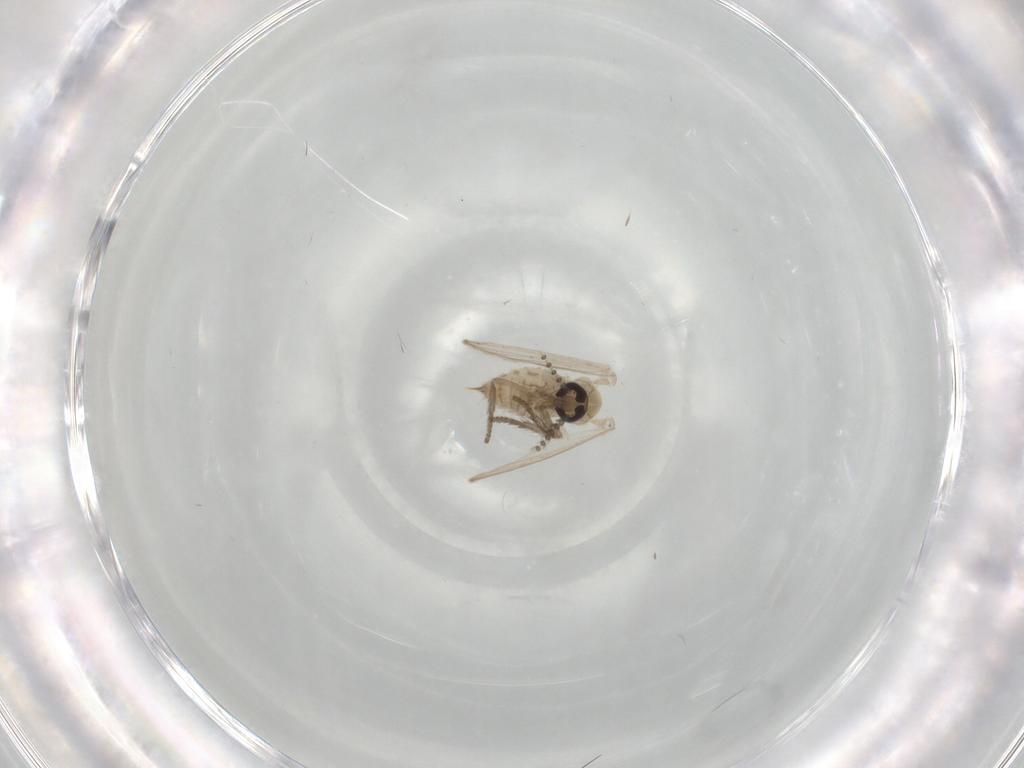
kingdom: Animalia
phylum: Arthropoda
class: Insecta
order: Diptera
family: Psychodidae
